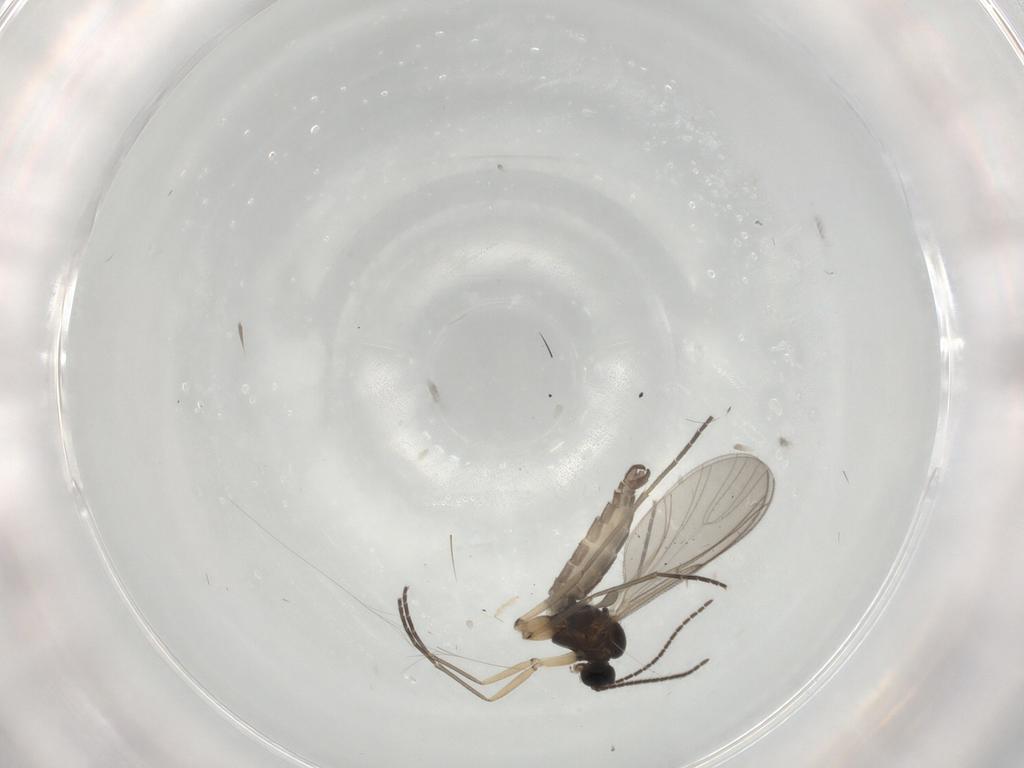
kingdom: Animalia
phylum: Arthropoda
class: Insecta
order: Diptera
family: Sciaridae
